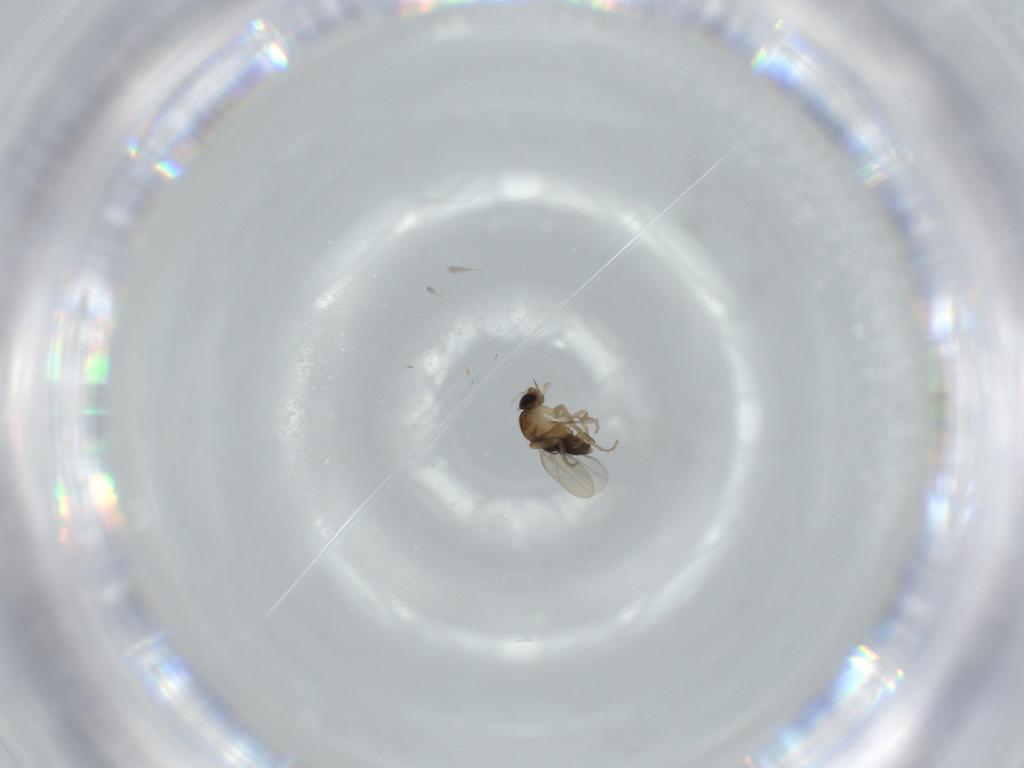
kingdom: Animalia
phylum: Arthropoda
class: Insecta
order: Diptera
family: Phoridae
